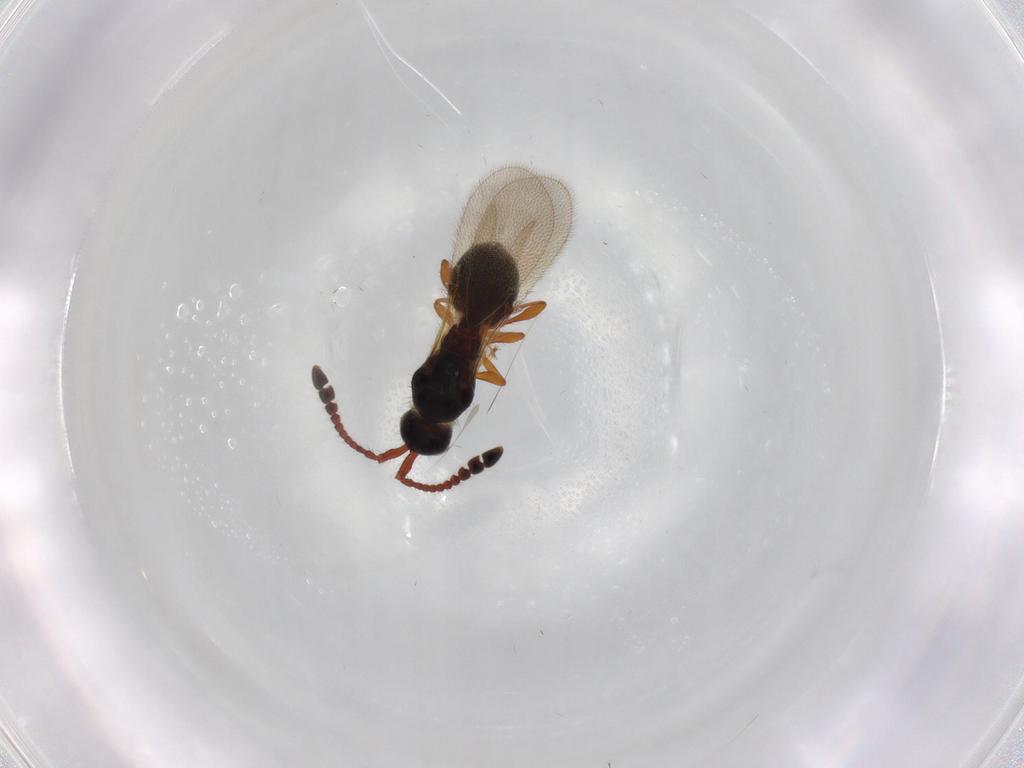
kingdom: Animalia
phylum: Arthropoda
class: Insecta
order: Hymenoptera
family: Diapriidae
